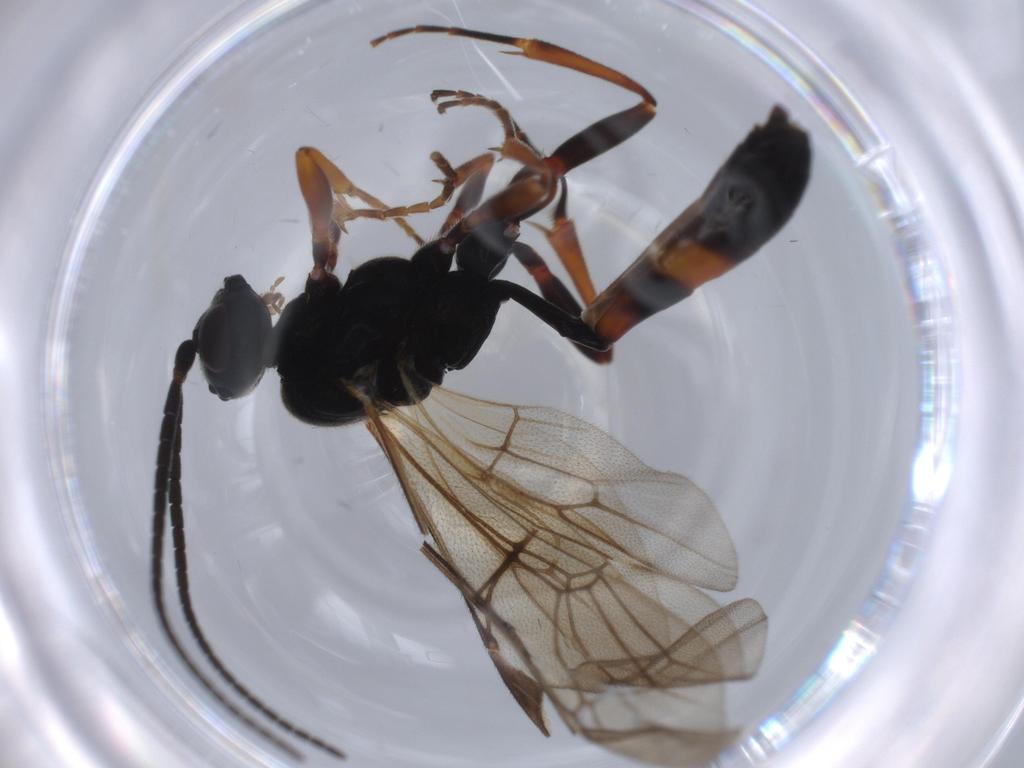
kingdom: Animalia
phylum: Arthropoda
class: Insecta
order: Hymenoptera
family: Ichneumonidae
